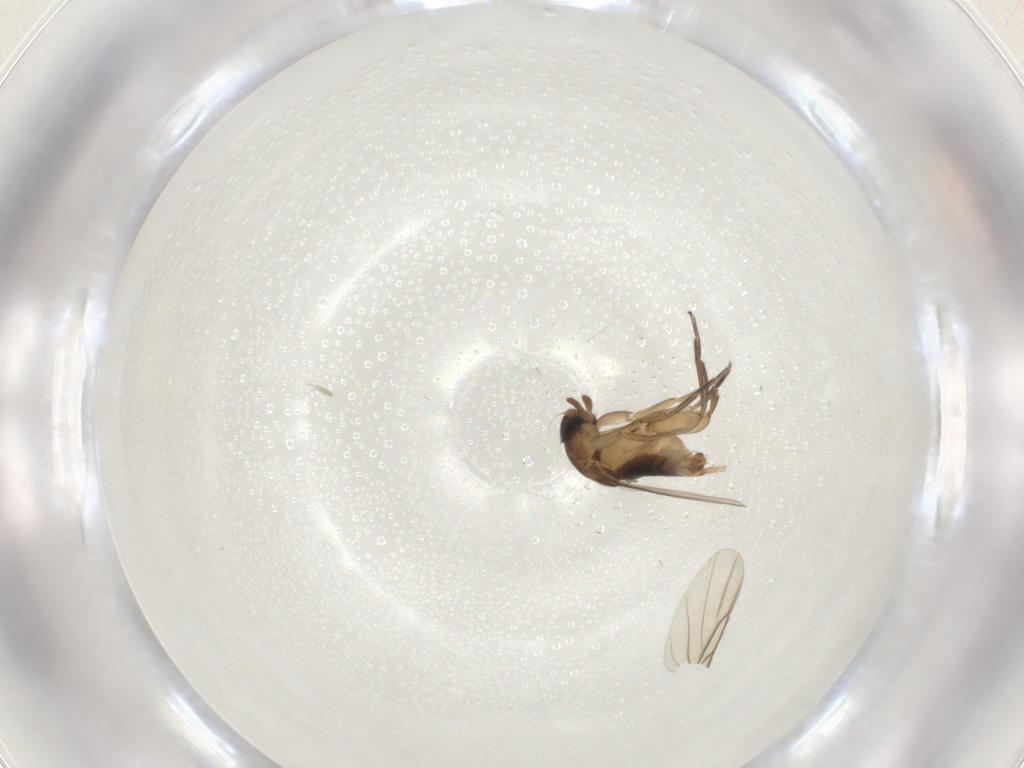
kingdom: Animalia
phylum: Arthropoda
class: Insecta
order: Diptera
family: Phoridae
